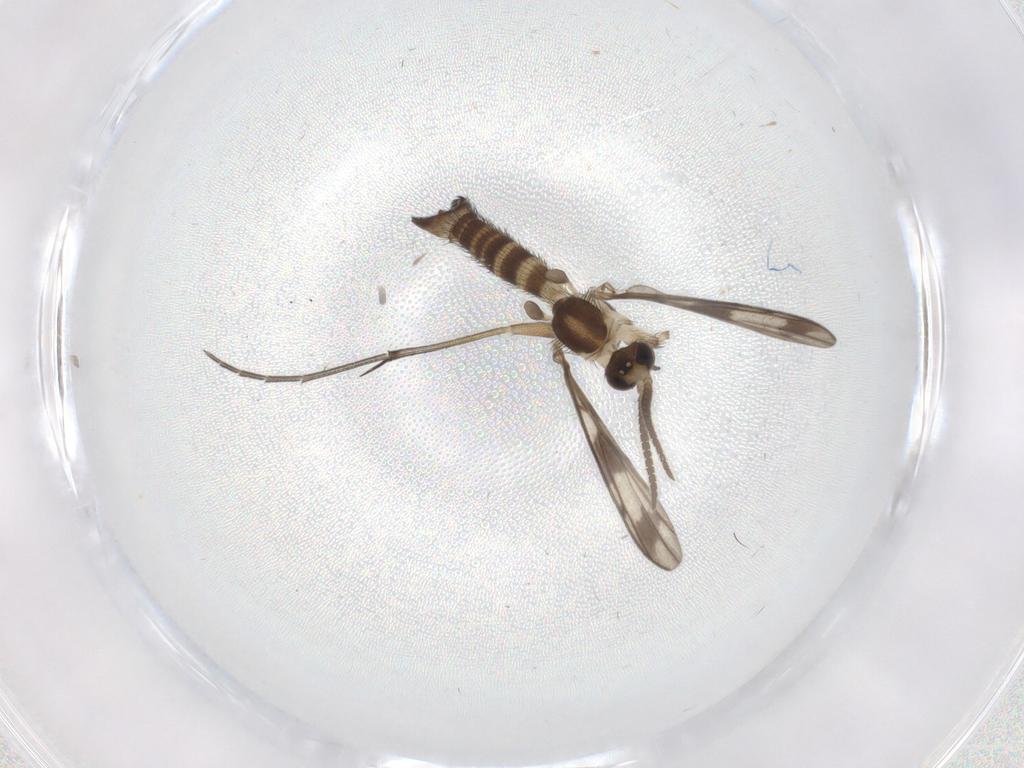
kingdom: Animalia
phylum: Arthropoda
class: Insecta
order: Diptera
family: Sciaridae
